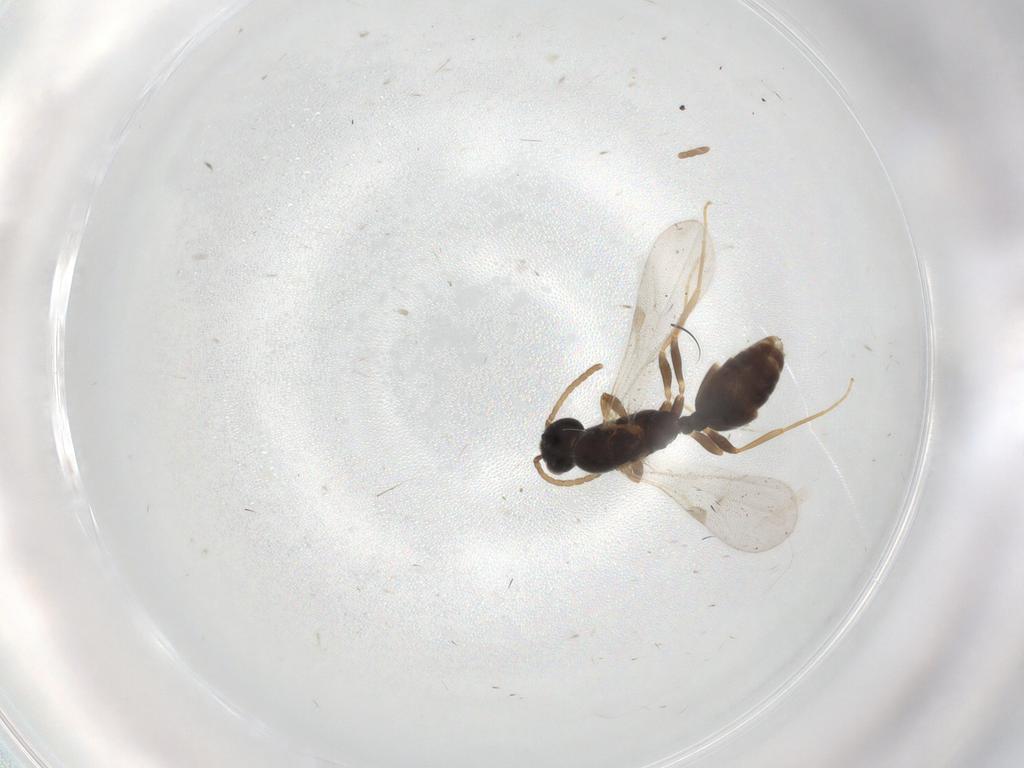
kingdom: Animalia
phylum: Arthropoda
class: Insecta
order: Hymenoptera
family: Formicidae
